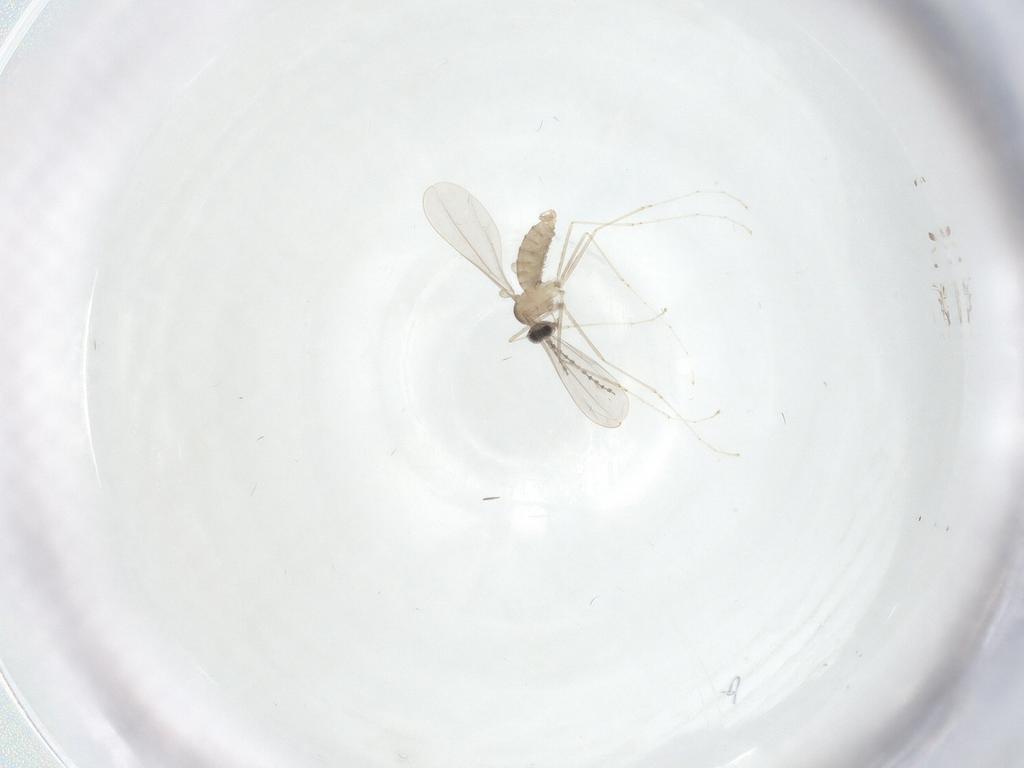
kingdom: Animalia
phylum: Arthropoda
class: Insecta
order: Diptera
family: Cecidomyiidae
